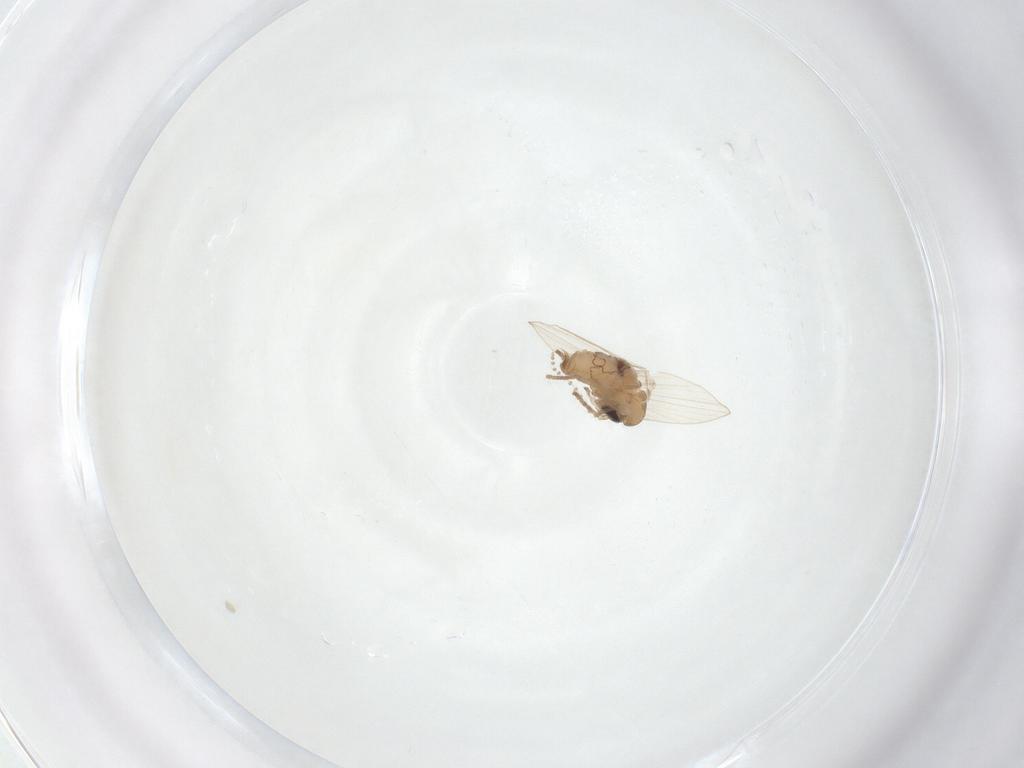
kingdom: Animalia
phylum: Arthropoda
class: Insecta
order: Diptera
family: Psychodidae
